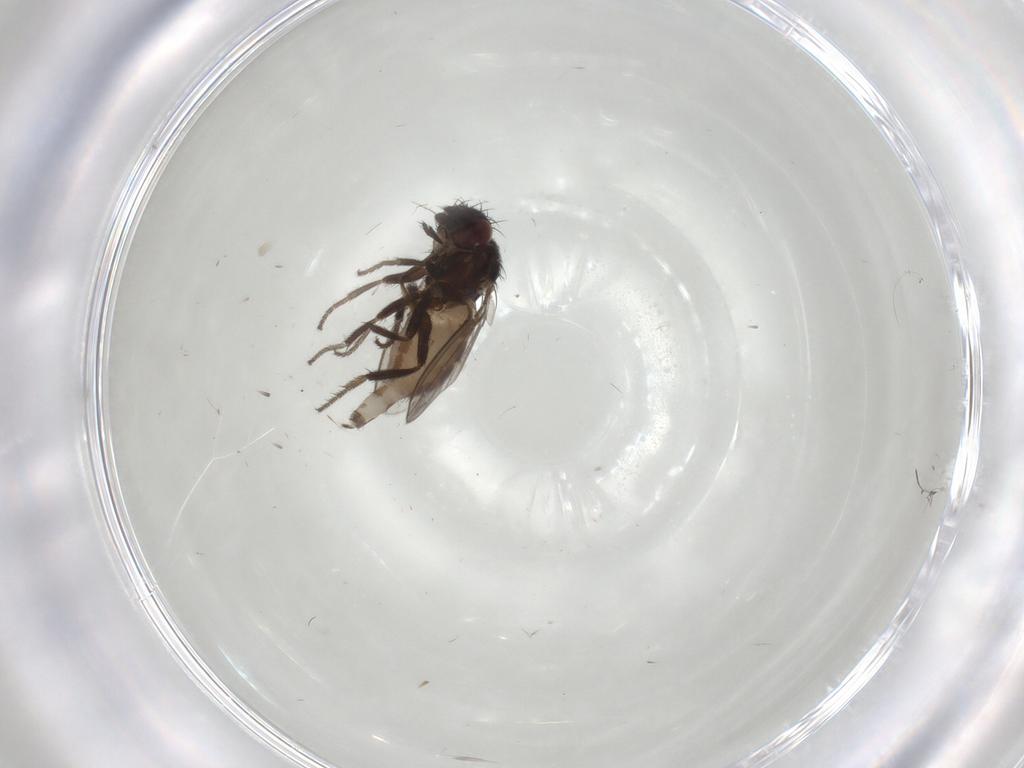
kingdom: Animalia
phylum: Arthropoda
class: Insecta
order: Diptera
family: Milichiidae
